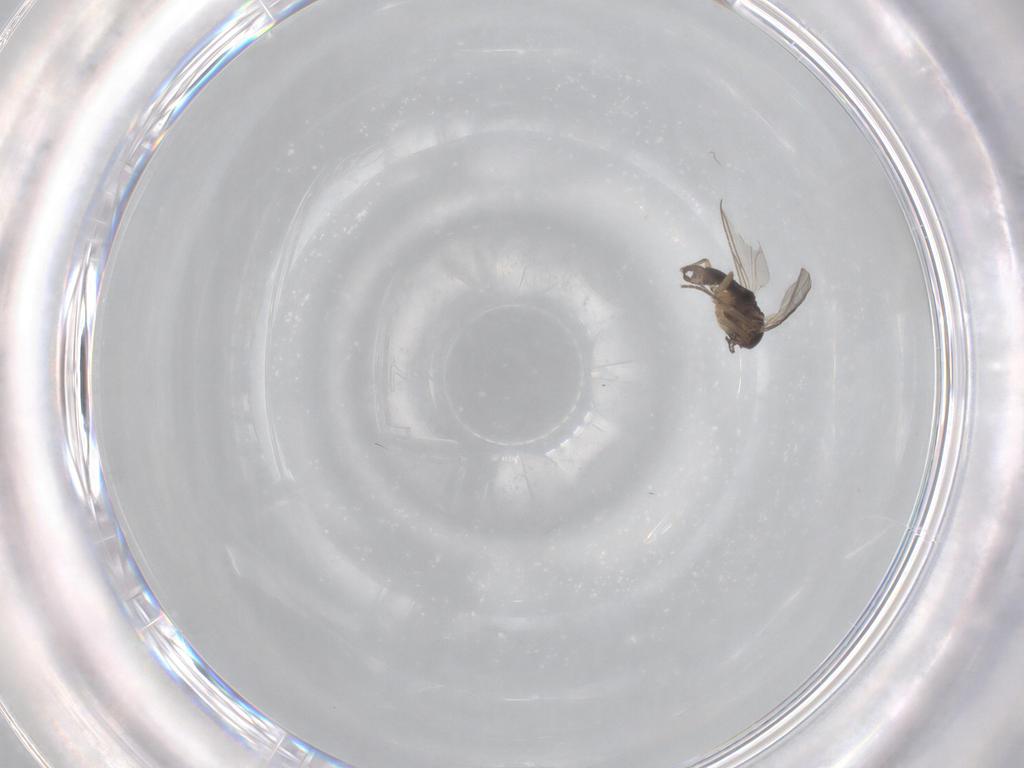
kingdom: Animalia
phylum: Arthropoda
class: Insecta
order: Diptera
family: Sciaridae
